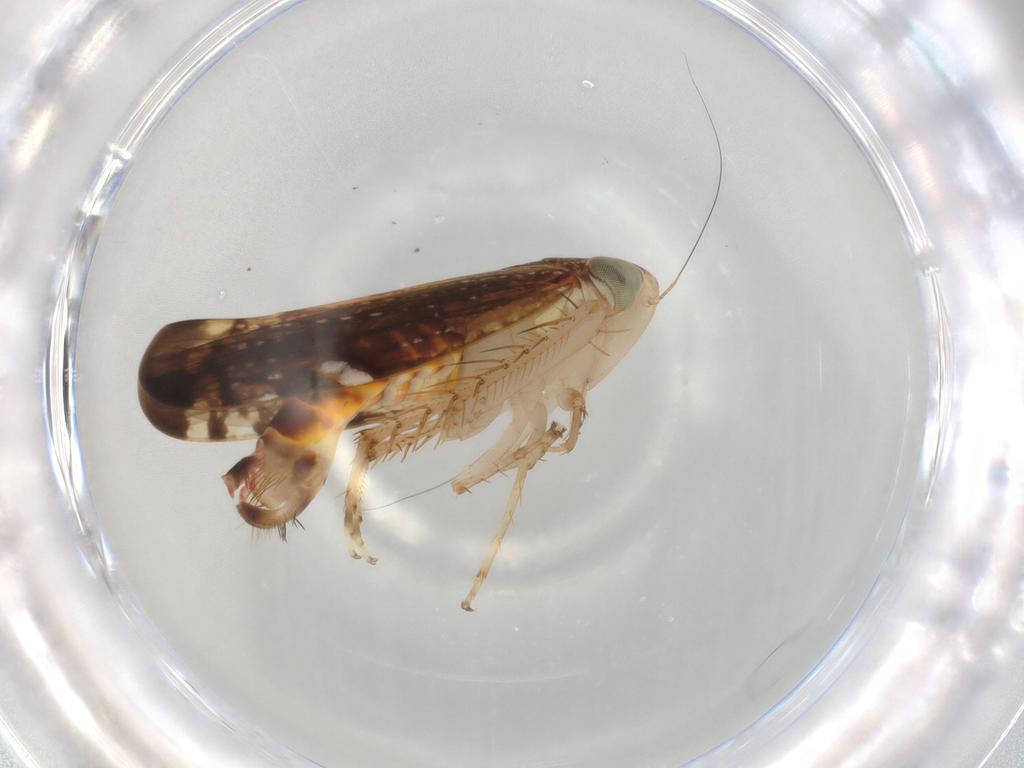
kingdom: Animalia
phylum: Arthropoda
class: Insecta
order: Hemiptera
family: Cicadellidae
